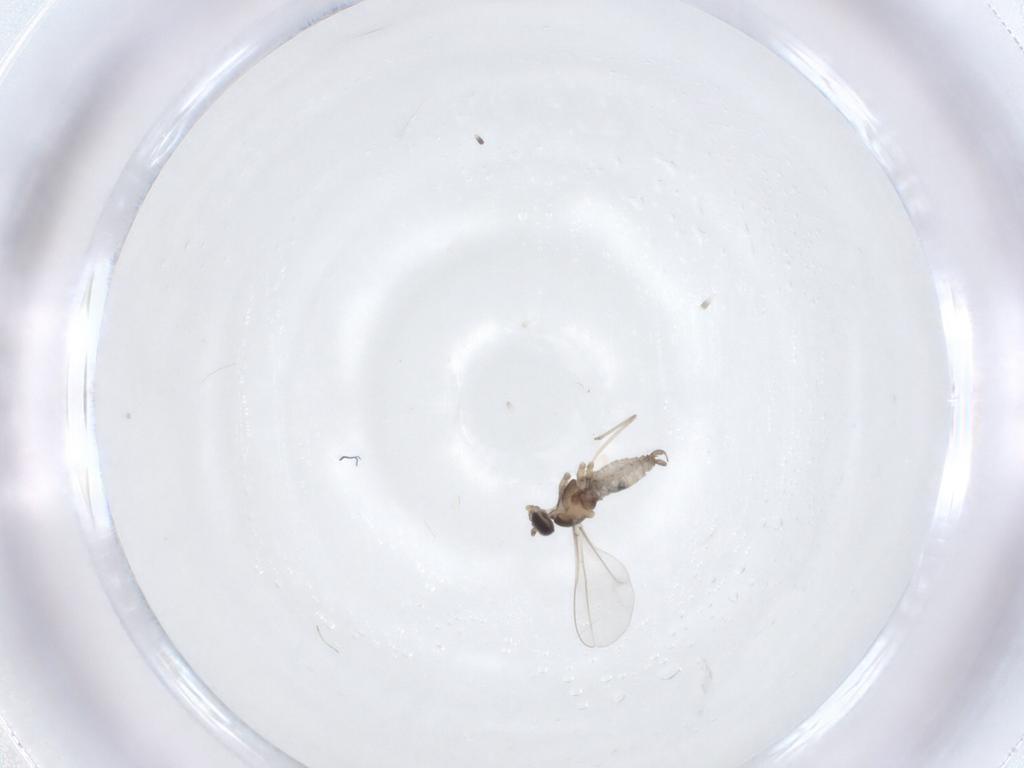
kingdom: Animalia
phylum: Arthropoda
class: Insecta
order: Diptera
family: Cecidomyiidae
